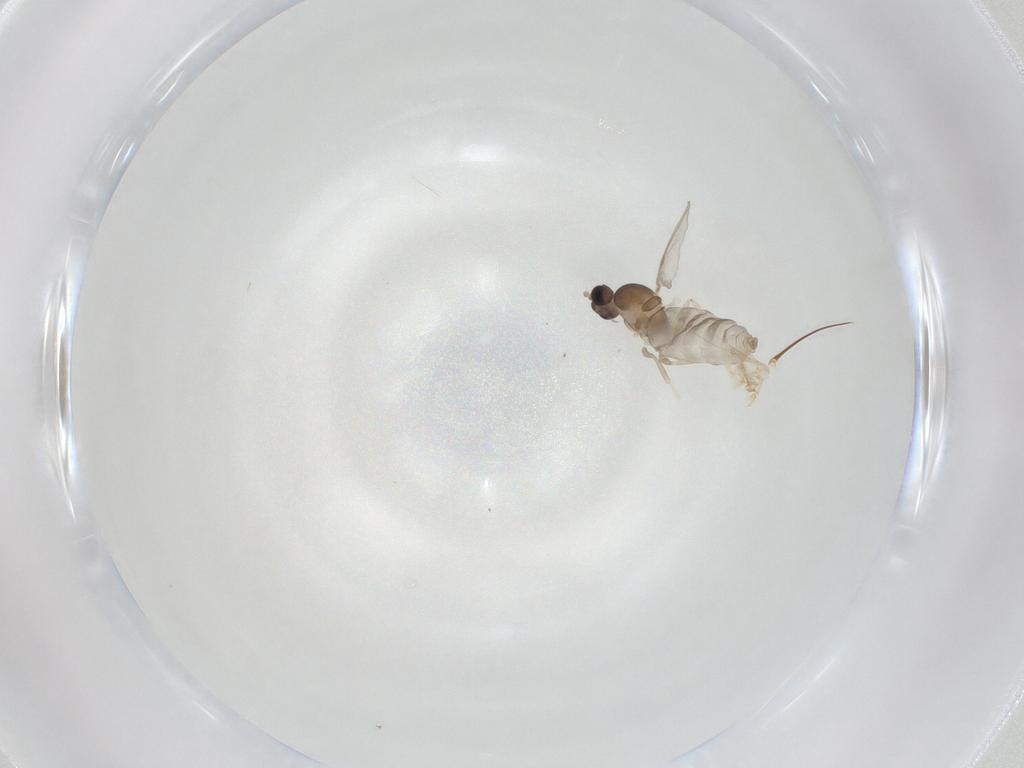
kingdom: Animalia
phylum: Arthropoda
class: Insecta
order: Diptera
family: Cecidomyiidae
